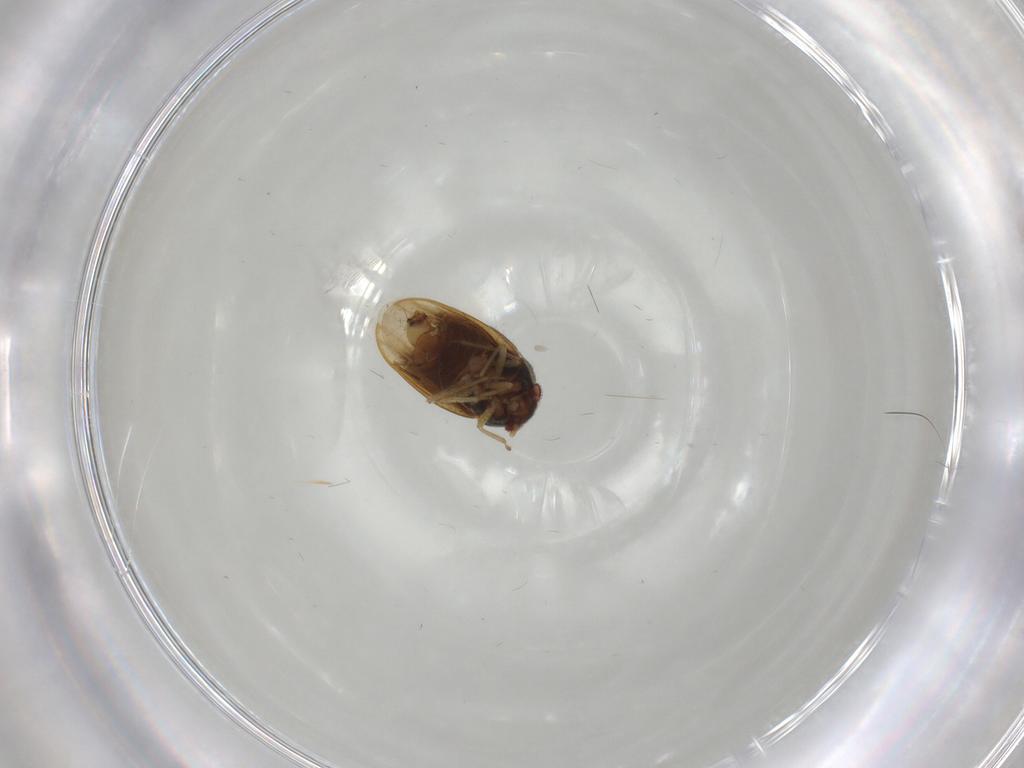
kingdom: Animalia
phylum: Arthropoda
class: Insecta
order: Hemiptera
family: Schizopteridae
